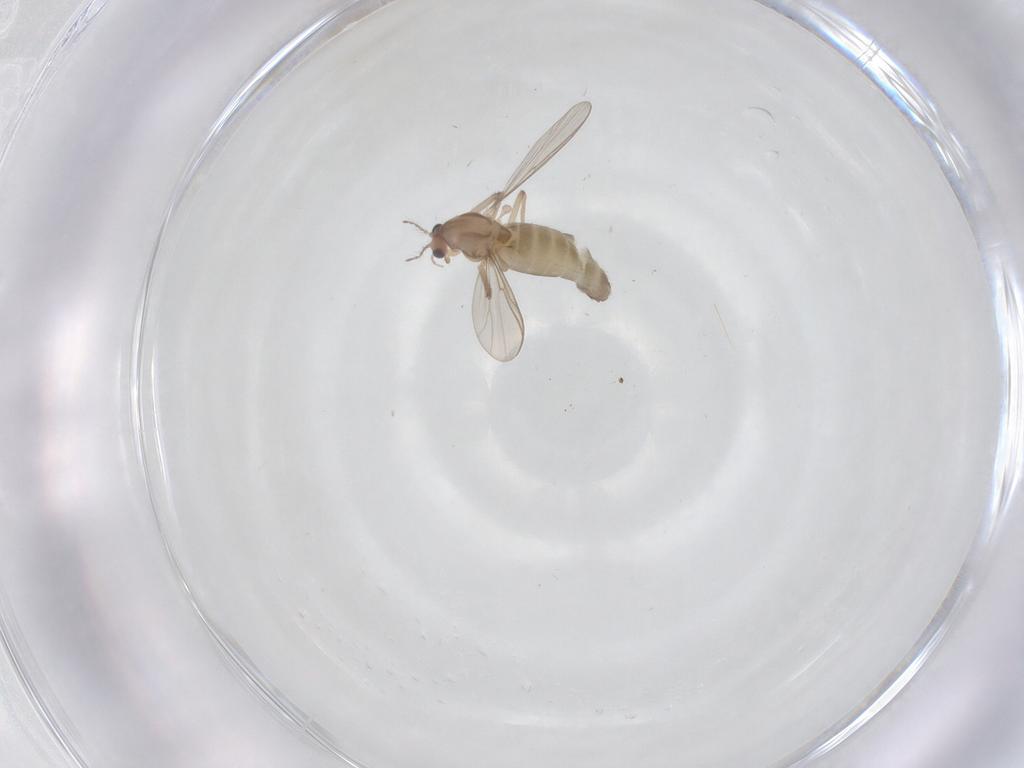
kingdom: Animalia
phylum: Arthropoda
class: Insecta
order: Diptera
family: Chironomidae
